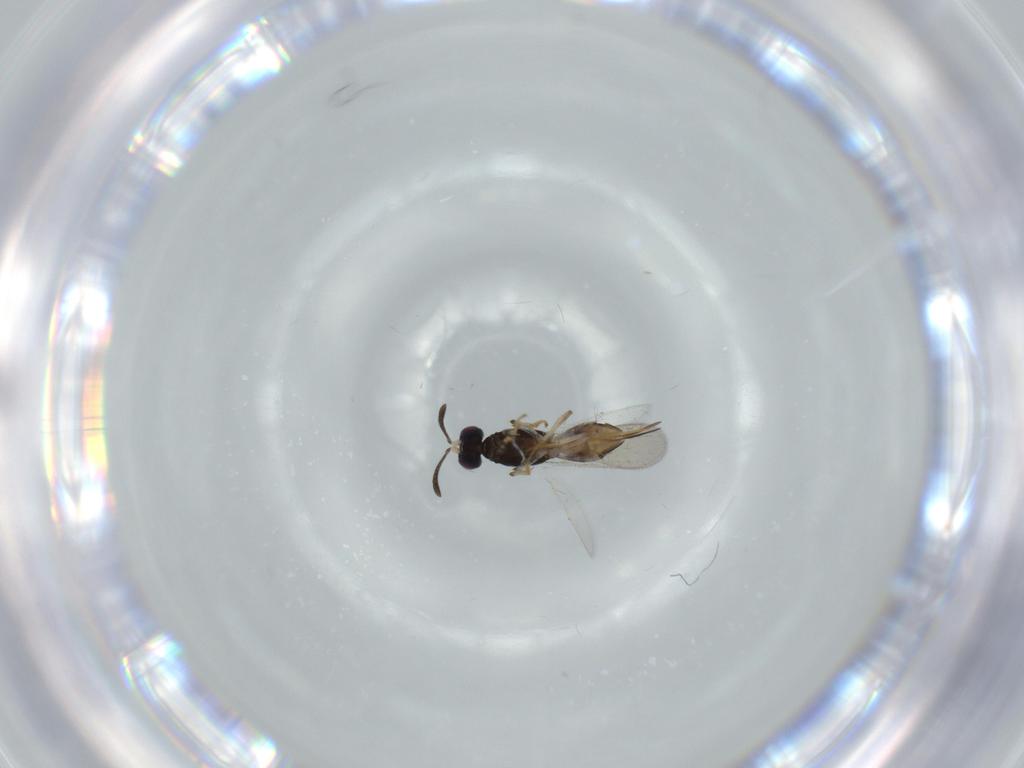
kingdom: Animalia
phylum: Arthropoda
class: Insecta
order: Hymenoptera
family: Eupelmidae
